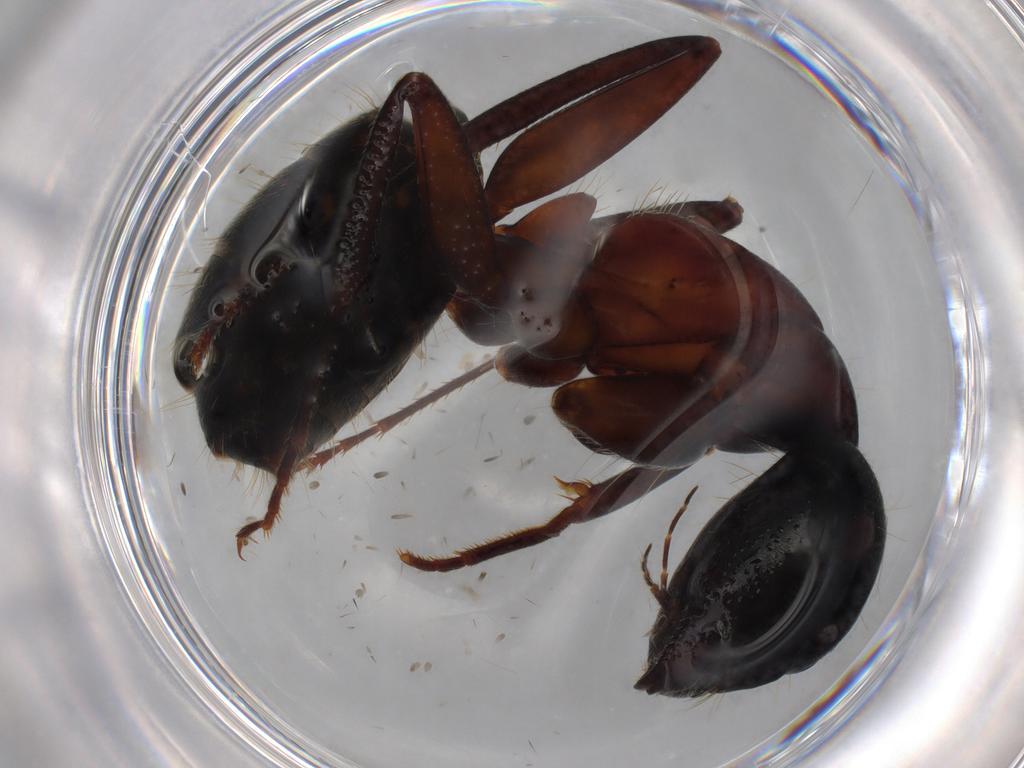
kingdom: Animalia
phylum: Arthropoda
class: Insecta
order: Hymenoptera
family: Formicidae
